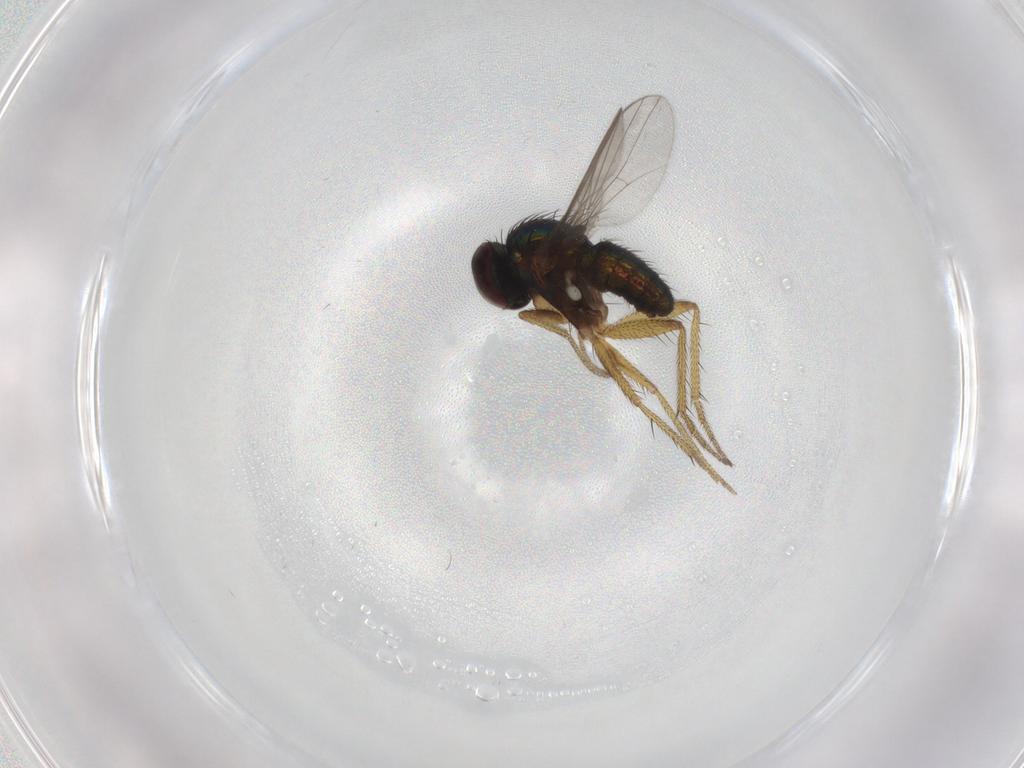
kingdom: Animalia
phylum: Arthropoda
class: Insecta
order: Diptera
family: Dolichopodidae
